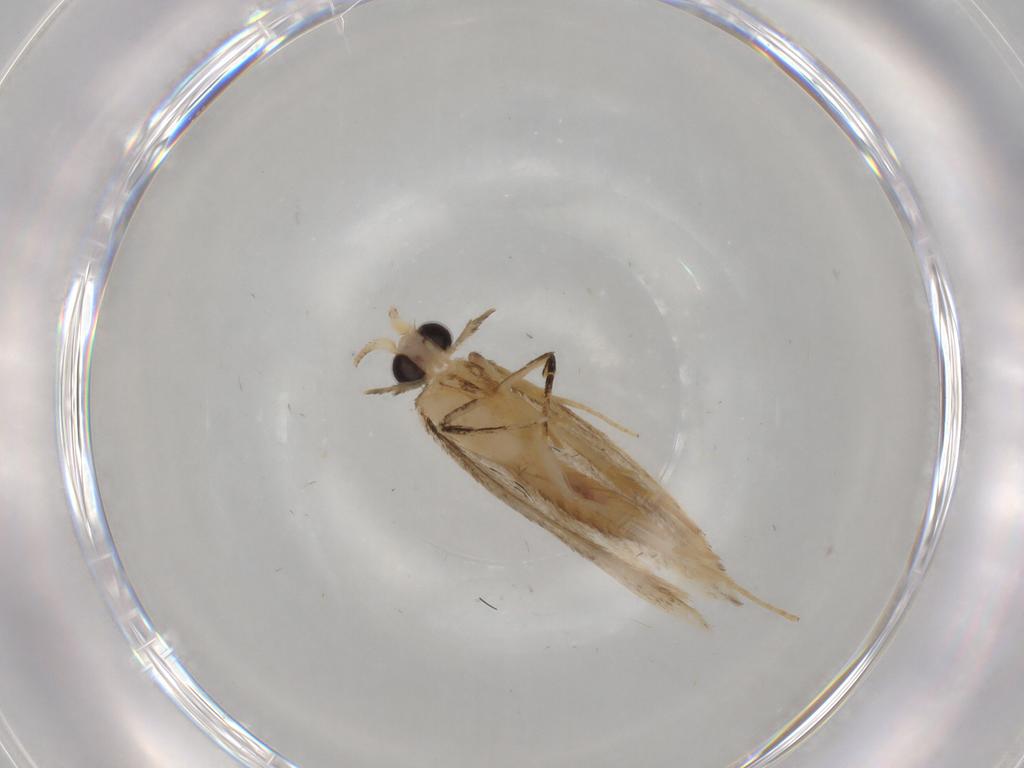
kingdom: Animalia
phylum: Arthropoda
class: Insecta
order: Lepidoptera
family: Nepticulidae
